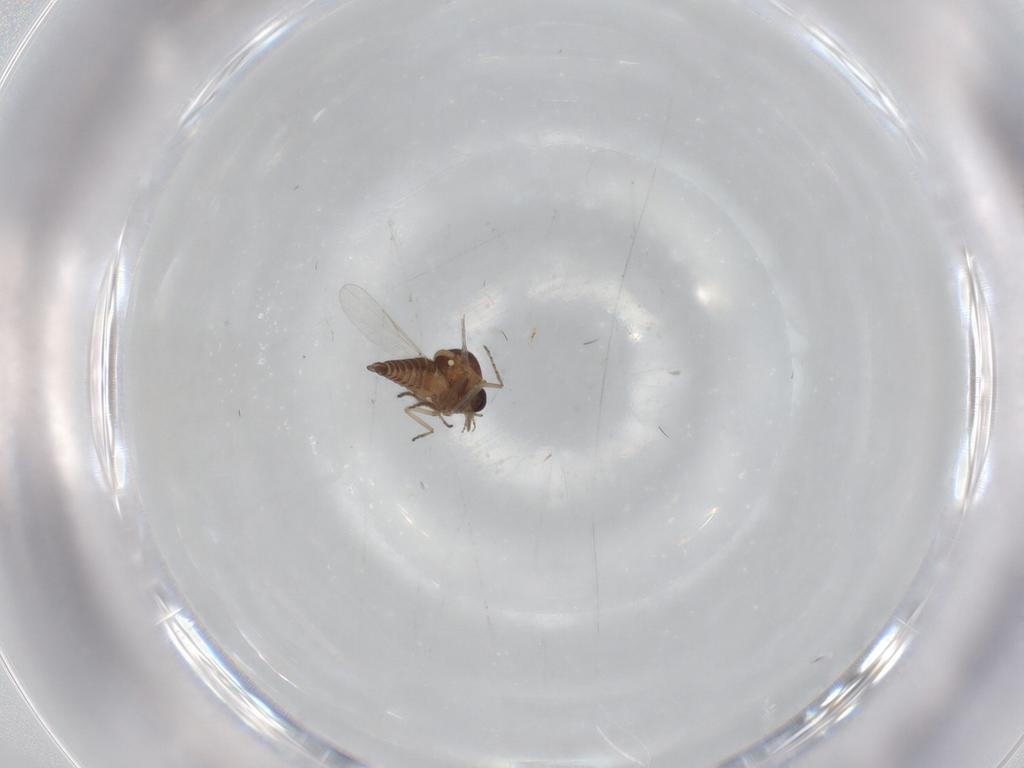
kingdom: Animalia
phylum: Arthropoda
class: Insecta
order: Diptera
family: Ceratopogonidae
